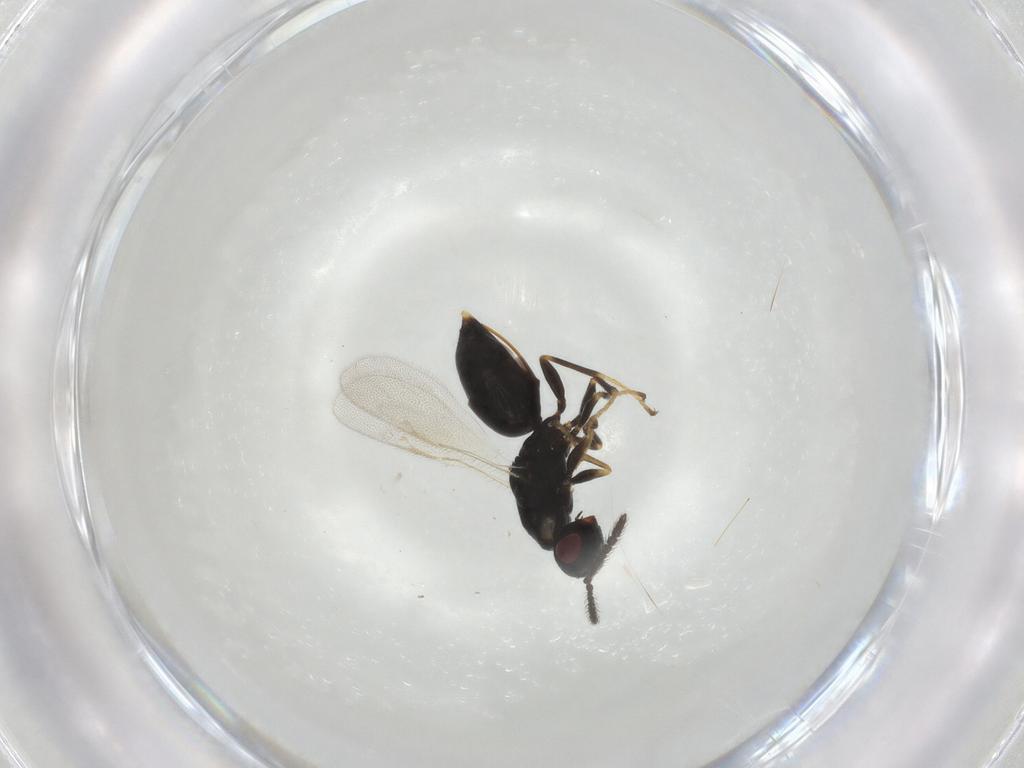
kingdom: Animalia
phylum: Arthropoda
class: Insecta
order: Hymenoptera
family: Eurytomidae
